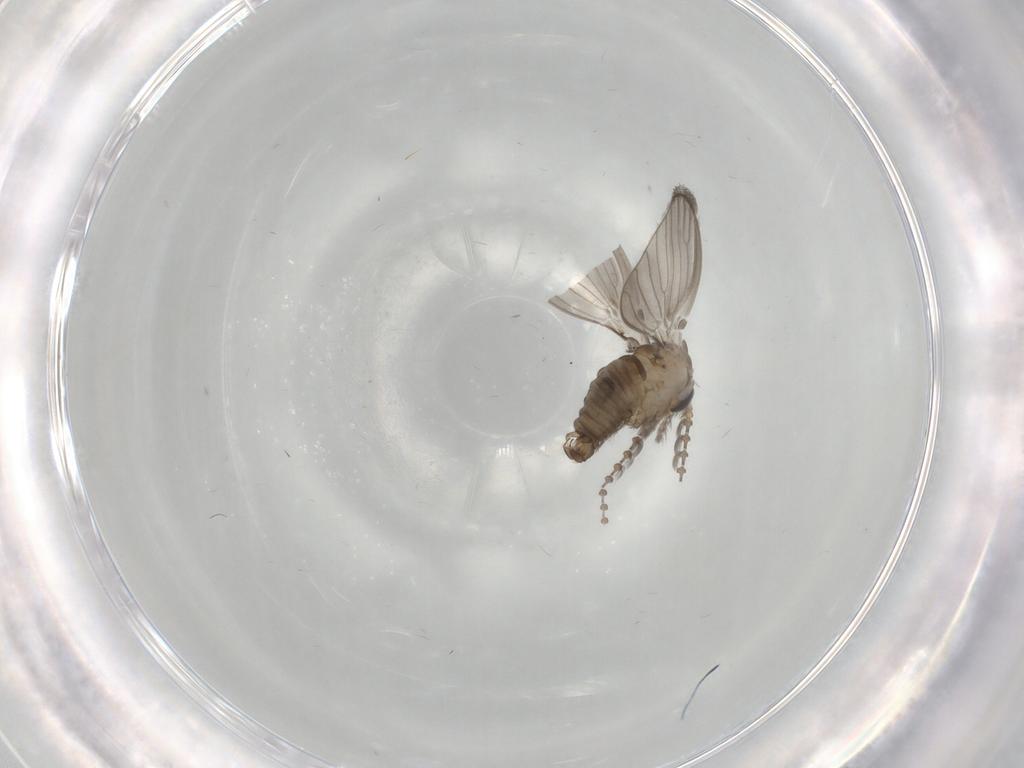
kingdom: Animalia
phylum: Arthropoda
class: Insecta
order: Diptera
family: Psychodidae
